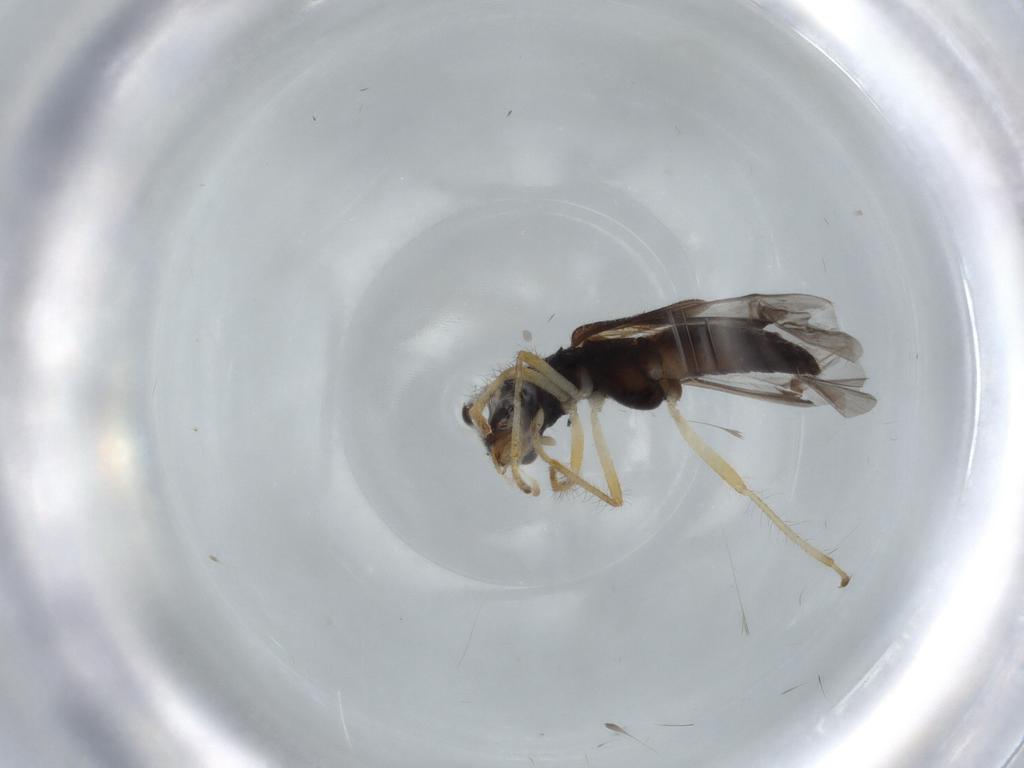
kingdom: Animalia
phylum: Arthropoda
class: Insecta
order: Coleoptera
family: Cleridae
